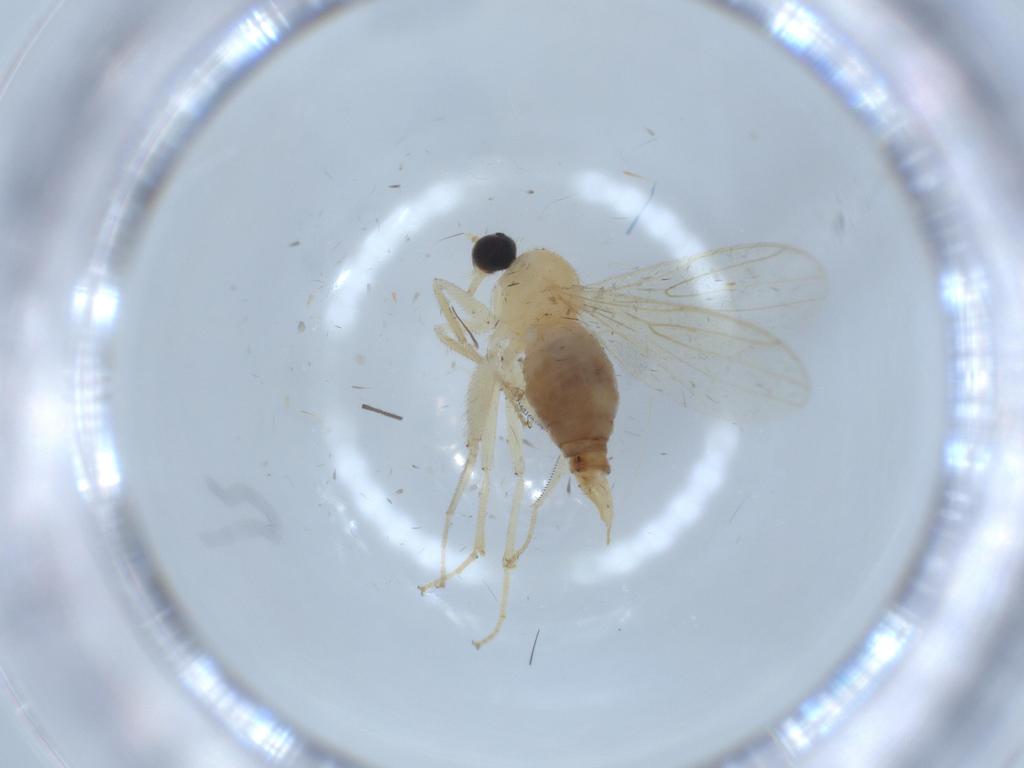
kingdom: Animalia
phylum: Arthropoda
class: Insecta
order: Diptera
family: Hybotidae
